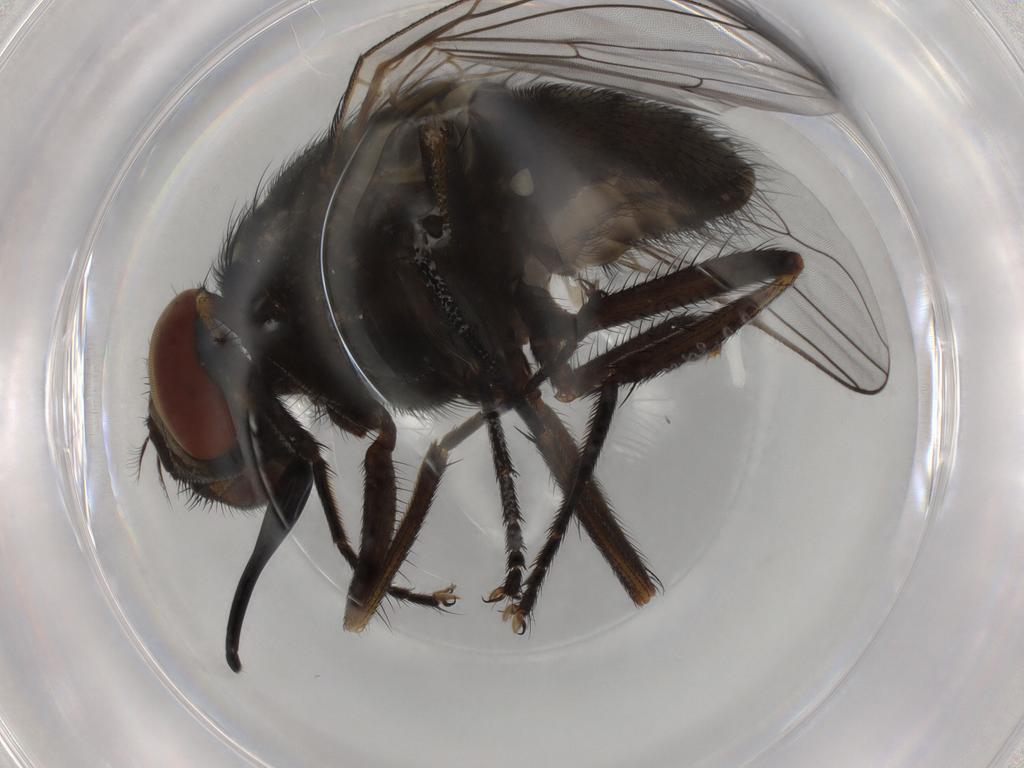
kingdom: Animalia
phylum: Arthropoda
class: Insecta
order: Diptera
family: Muscidae
